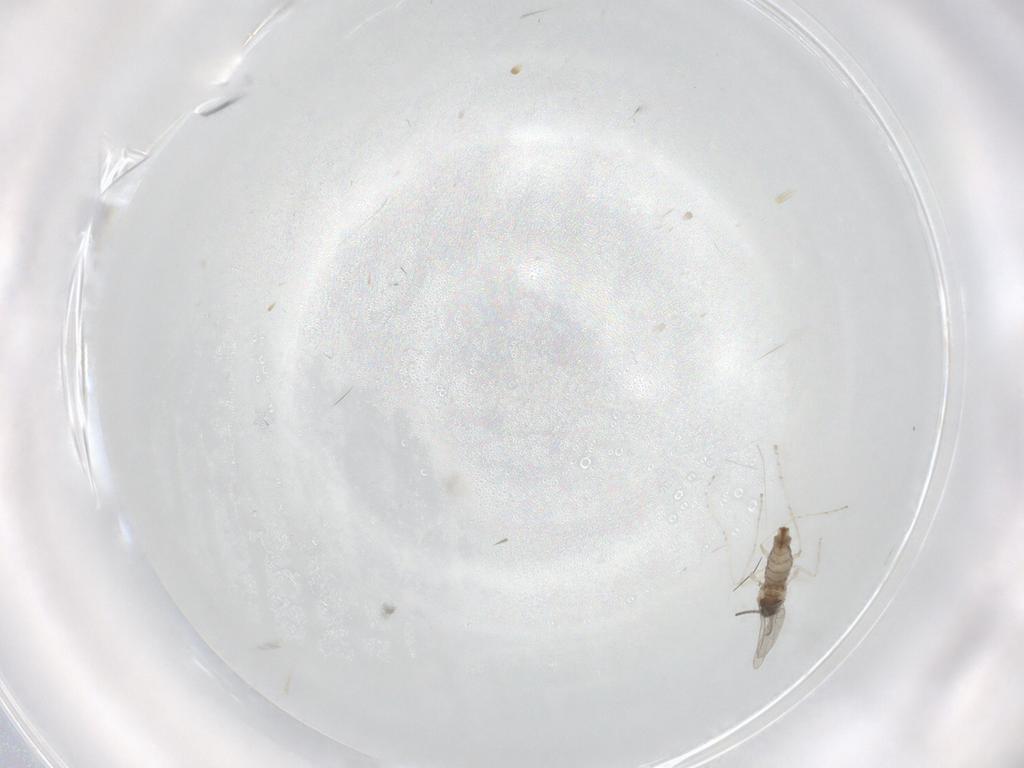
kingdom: Animalia
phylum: Arthropoda
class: Insecta
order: Diptera
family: Cecidomyiidae
